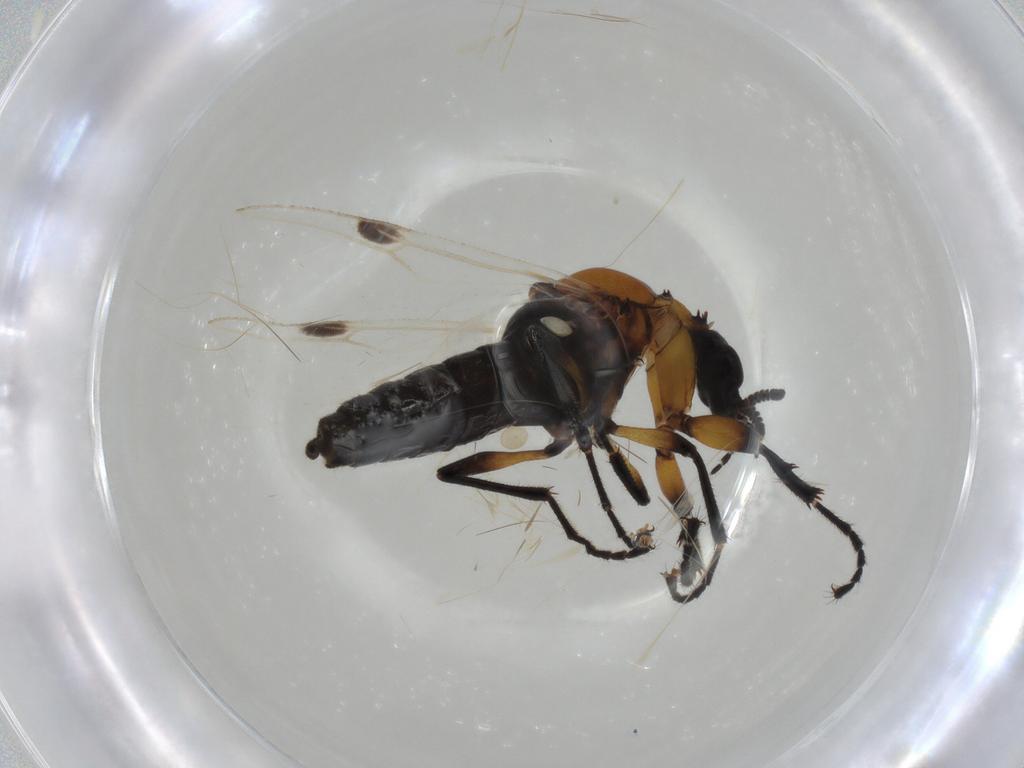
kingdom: Animalia
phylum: Arthropoda
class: Insecta
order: Diptera
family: Bibionidae
